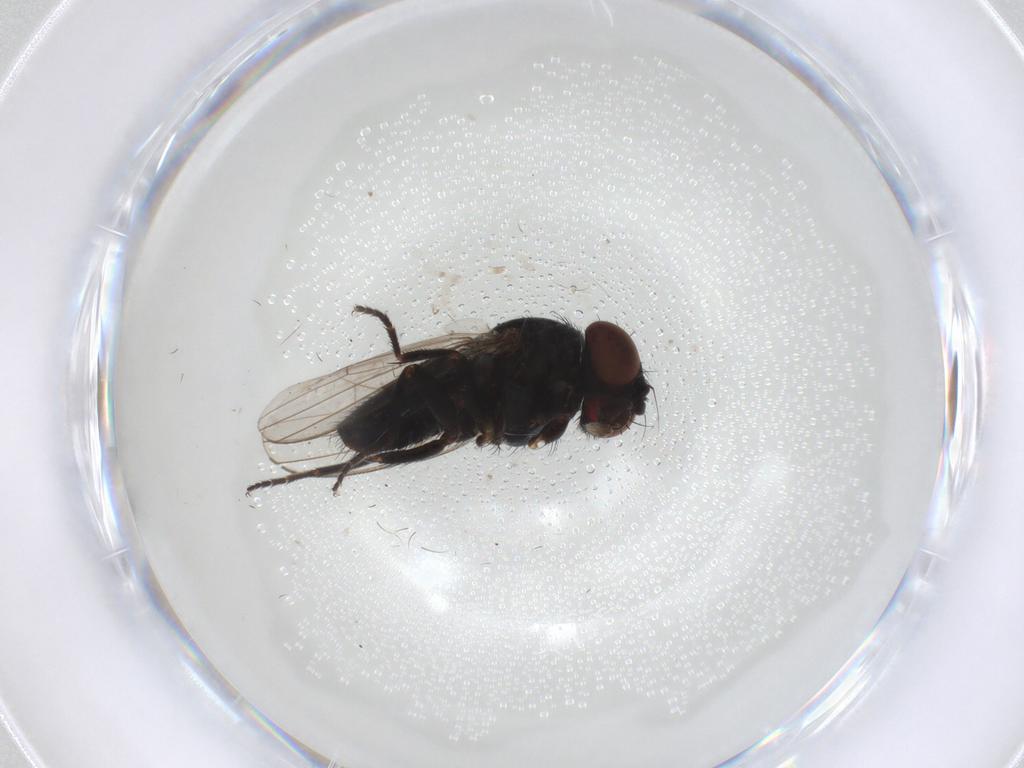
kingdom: Animalia
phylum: Arthropoda
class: Insecta
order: Diptera
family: Milichiidae
